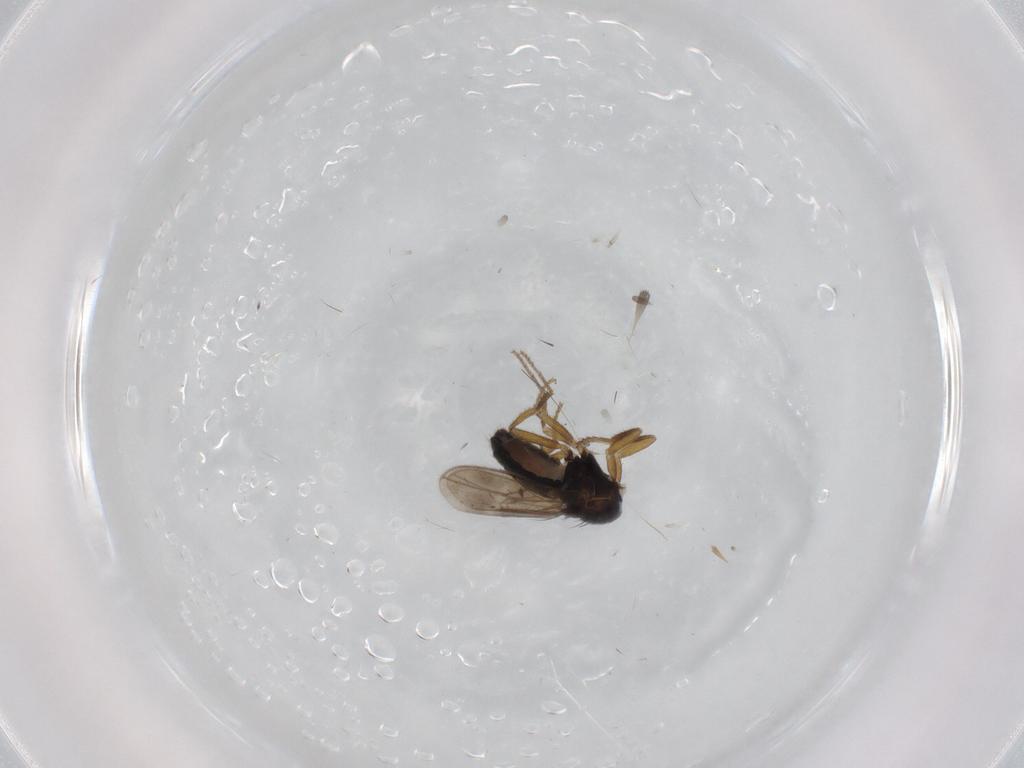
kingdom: Animalia
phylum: Arthropoda
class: Insecta
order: Diptera
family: Sphaeroceridae
